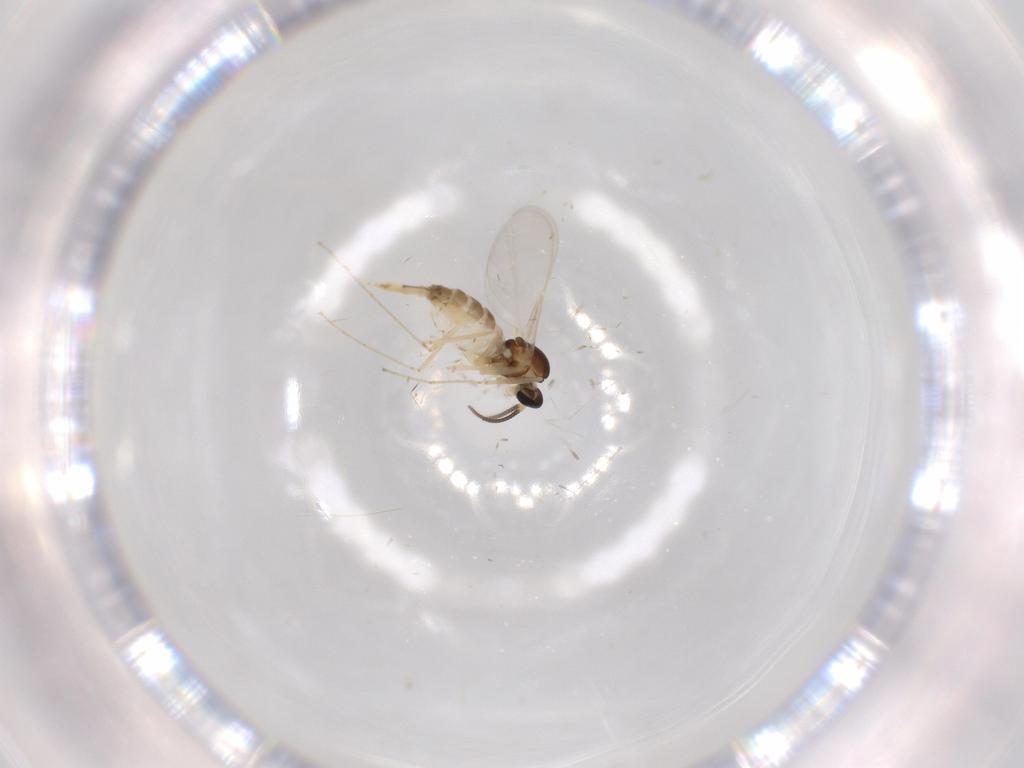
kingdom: Animalia
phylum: Arthropoda
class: Insecta
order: Diptera
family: Cecidomyiidae
